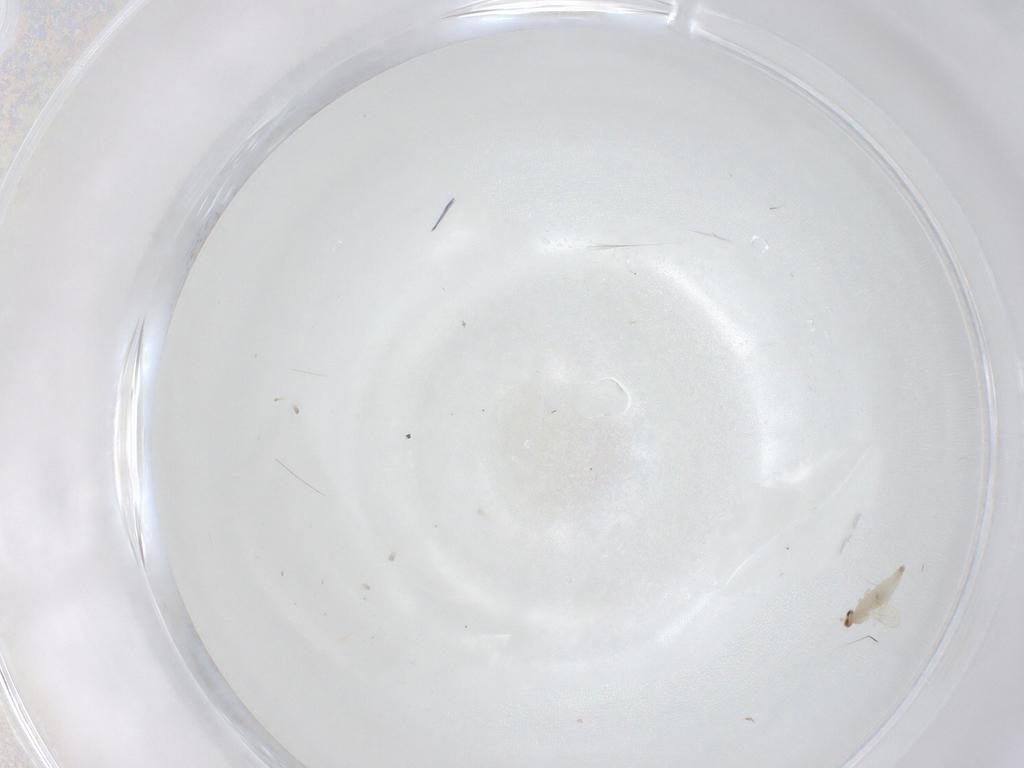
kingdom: Animalia
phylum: Arthropoda
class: Insecta
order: Diptera
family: Cecidomyiidae
